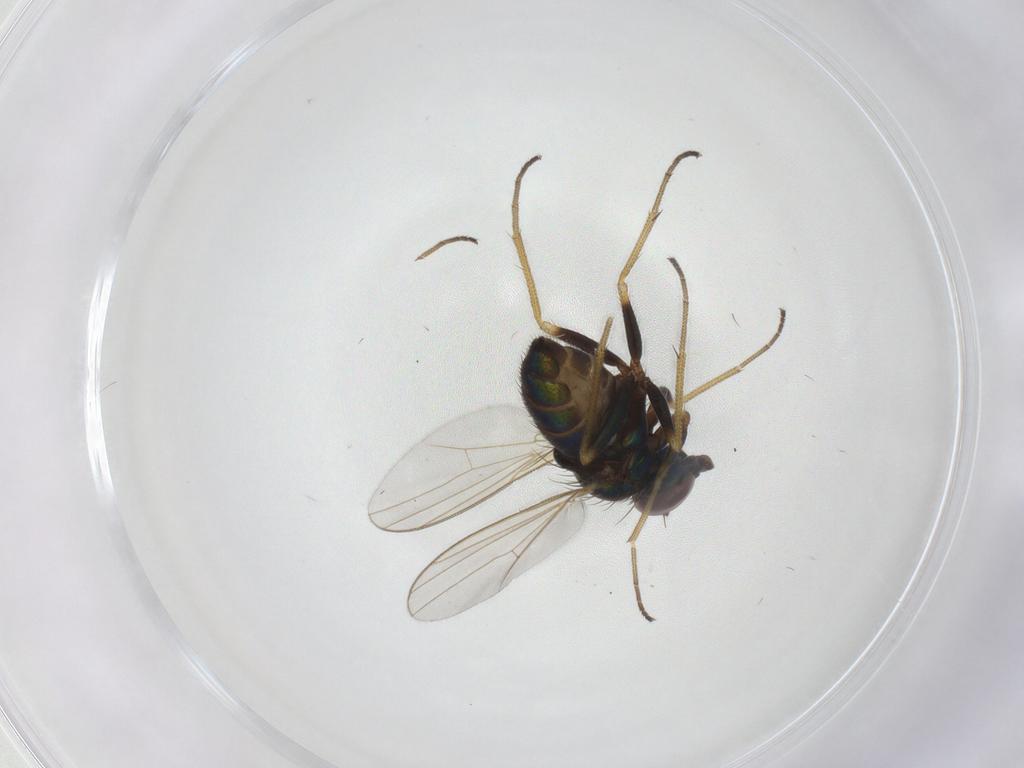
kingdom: Animalia
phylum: Arthropoda
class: Insecta
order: Diptera
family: Dolichopodidae
